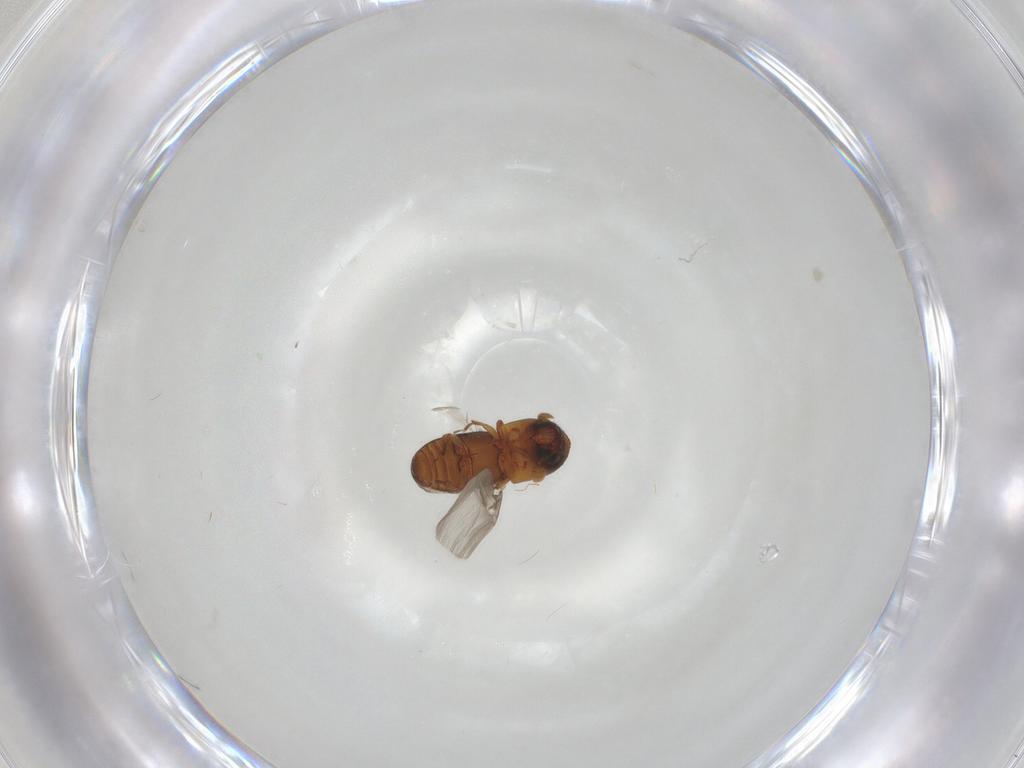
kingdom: Animalia
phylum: Arthropoda
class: Insecta
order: Coleoptera
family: Curculionidae
